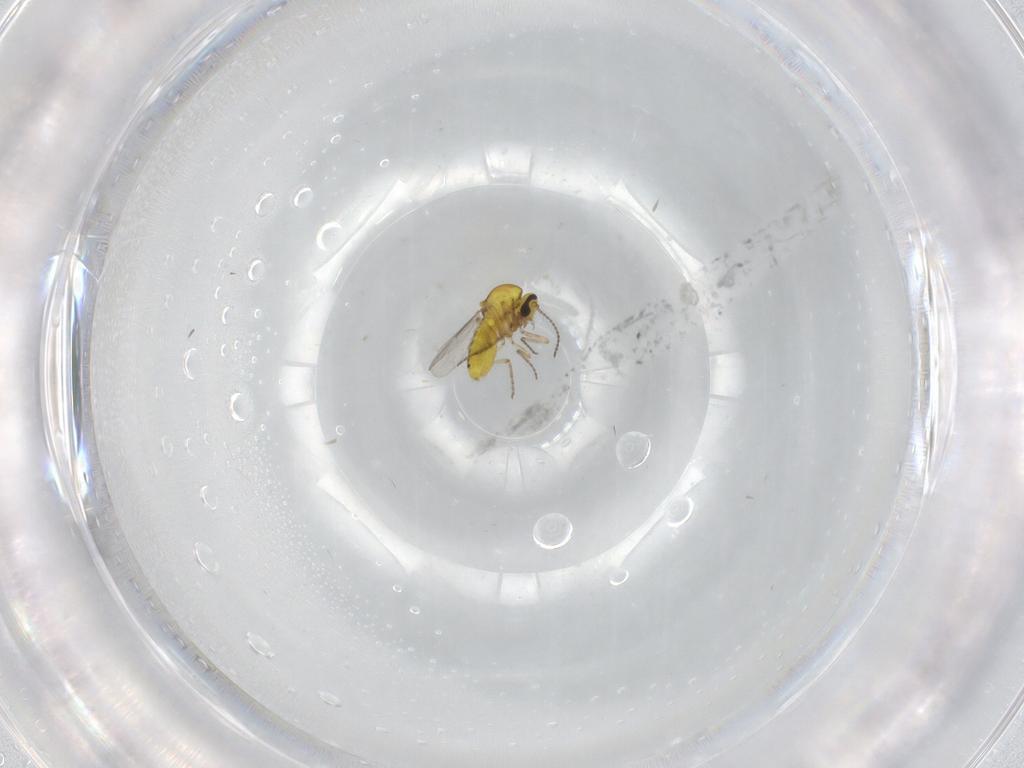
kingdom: Animalia
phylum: Arthropoda
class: Insecta
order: Diptera
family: Ceratopogonidae
